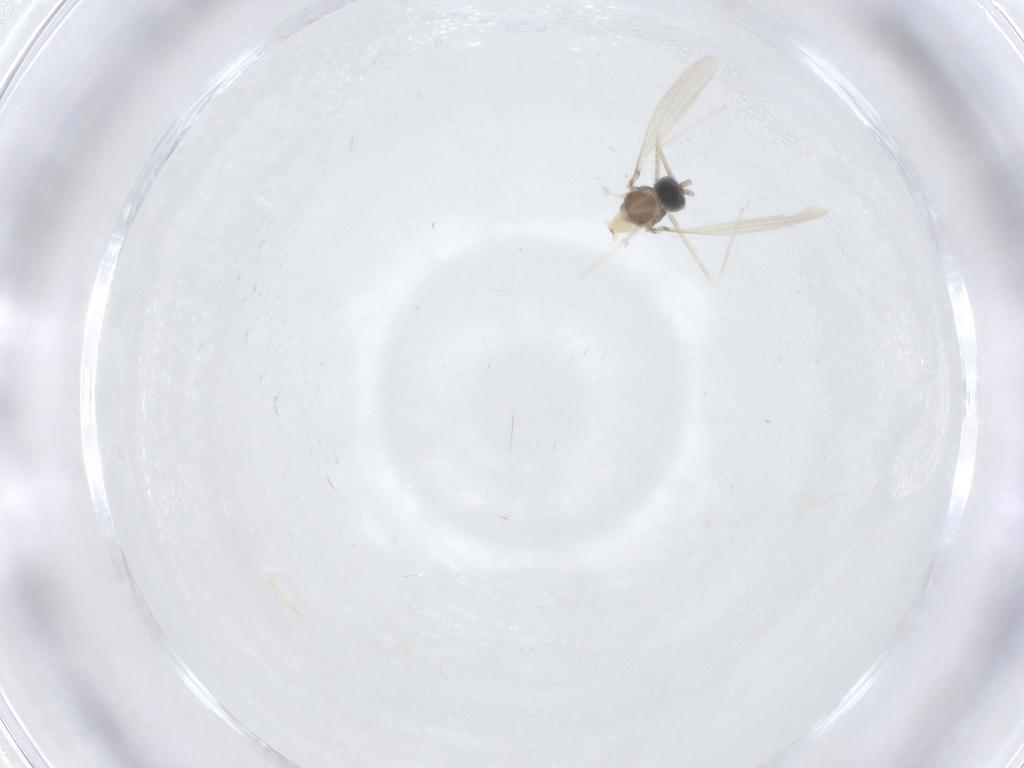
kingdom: Animalia
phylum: Arthropoda
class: Insecta
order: Diptera
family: Cecidomyiidae
